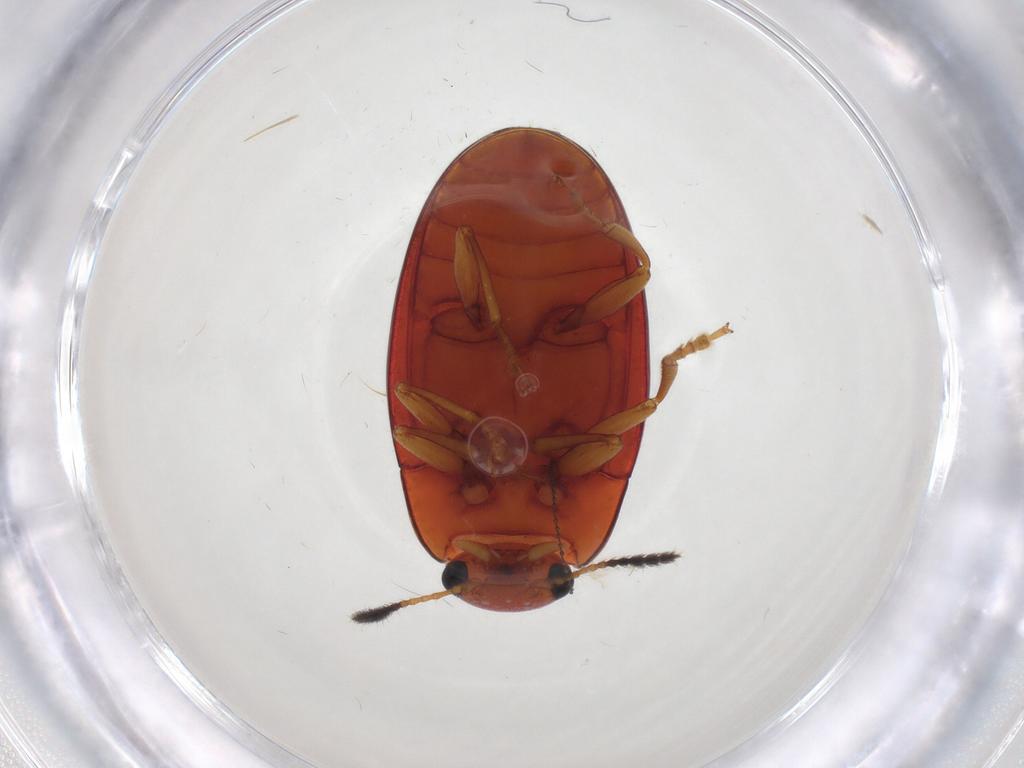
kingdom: Animalia
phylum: Arthropoda
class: Insecta
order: Coleoptera
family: Erotylidae
